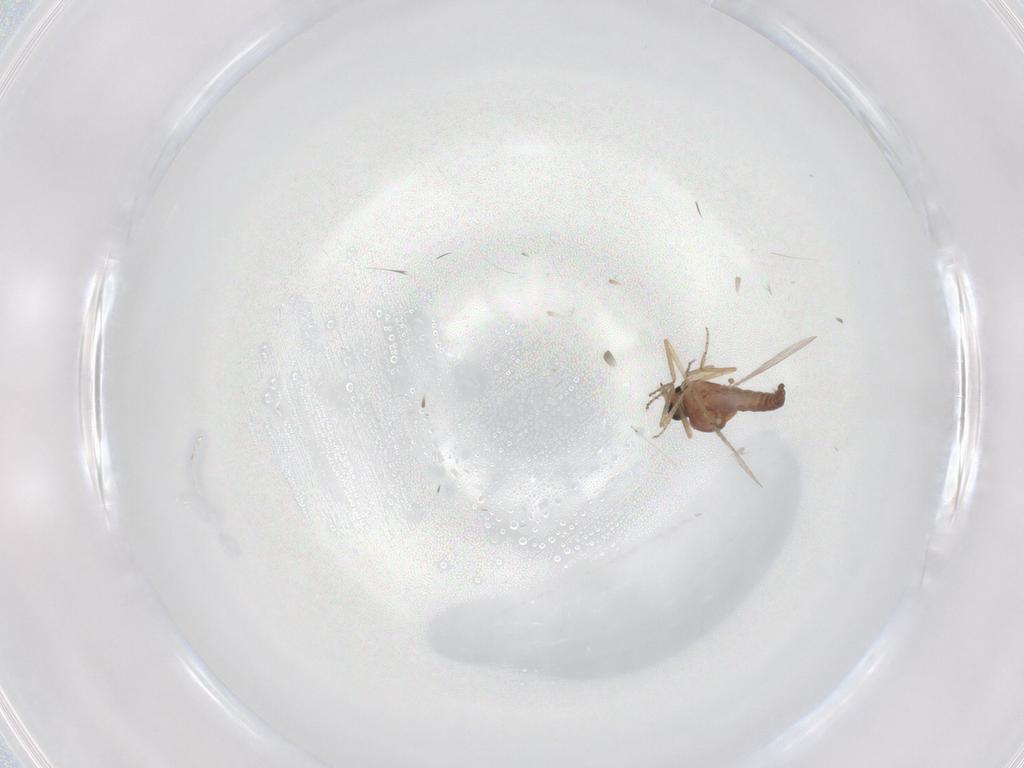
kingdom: Animalia
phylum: Arthropoda
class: Insecta
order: Diptera
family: Ceratopogonidae
